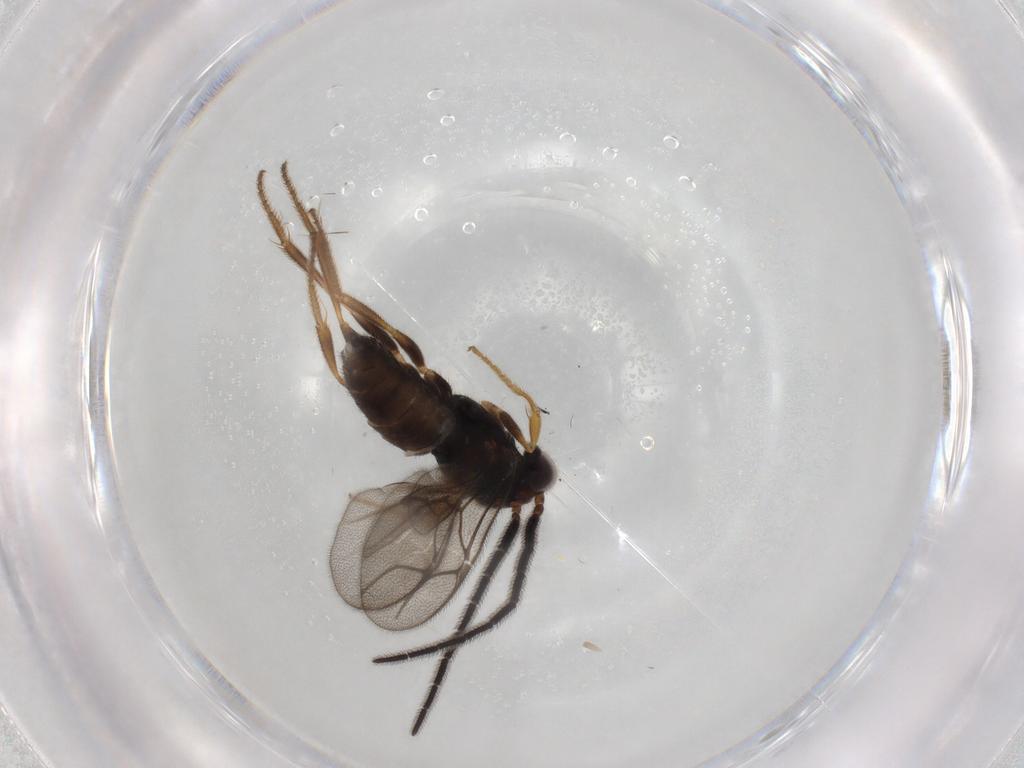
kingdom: Animalia
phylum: Arthropoda
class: Insecta
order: Hymenoptera
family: Dryinidae
